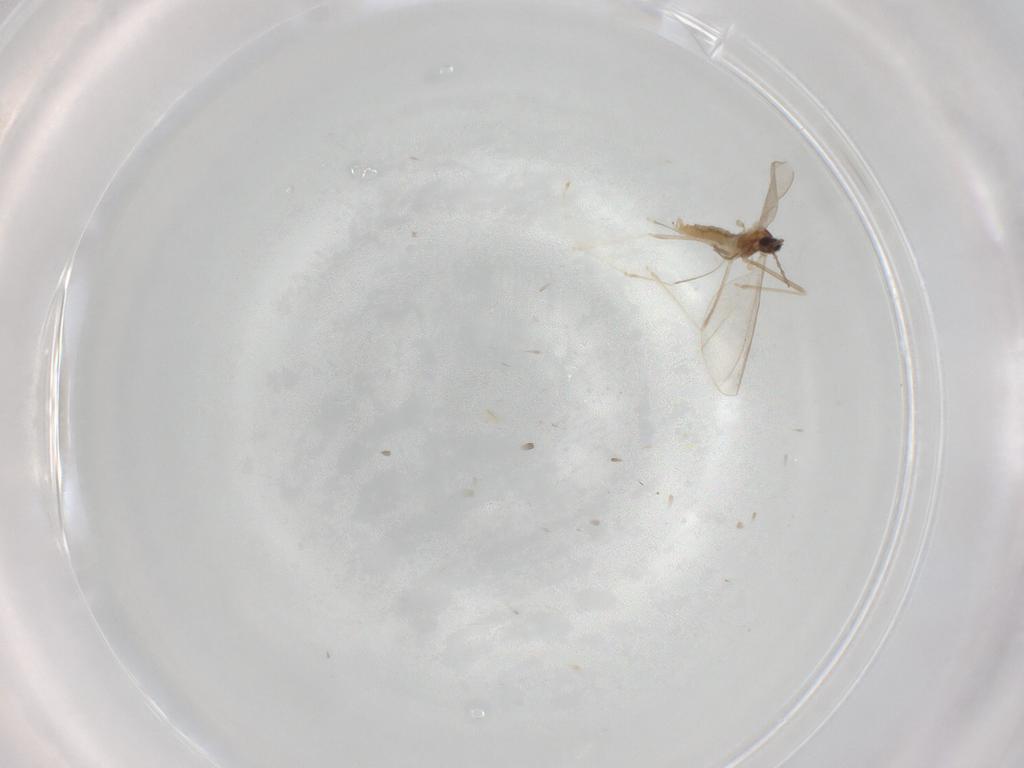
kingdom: Animalia
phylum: Arthropoda
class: Insecta
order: Diptera
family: Cecidomyiidae
